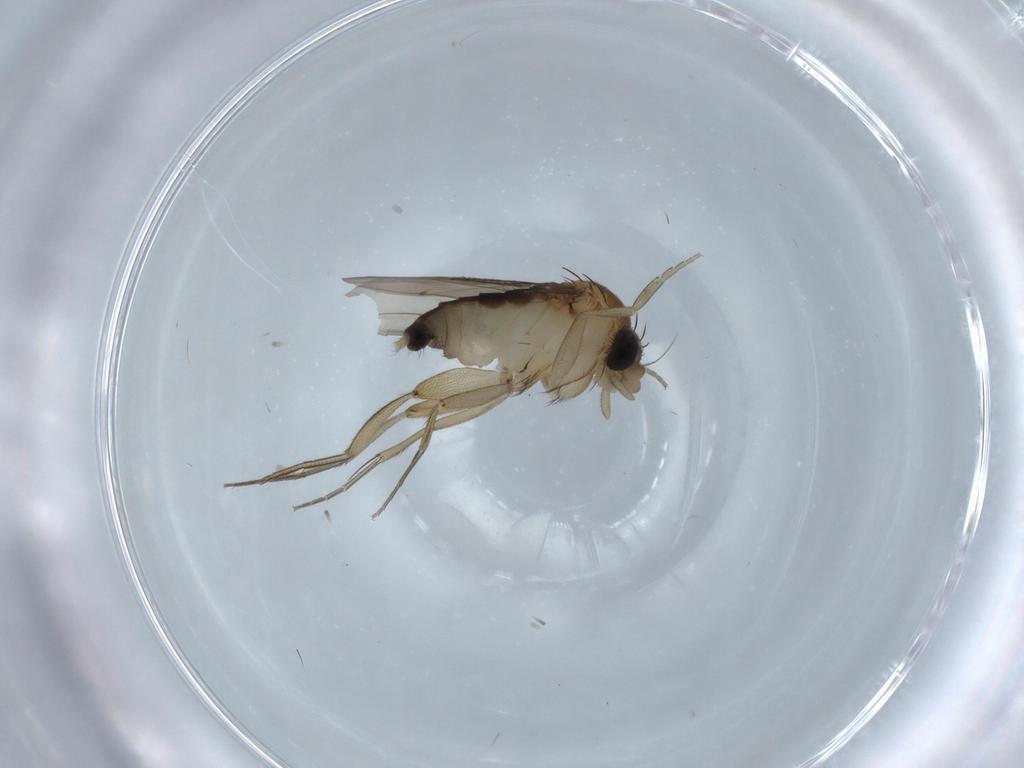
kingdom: Animalia
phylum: Arthropoda
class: Insecta
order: Diptera
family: Phoridae
